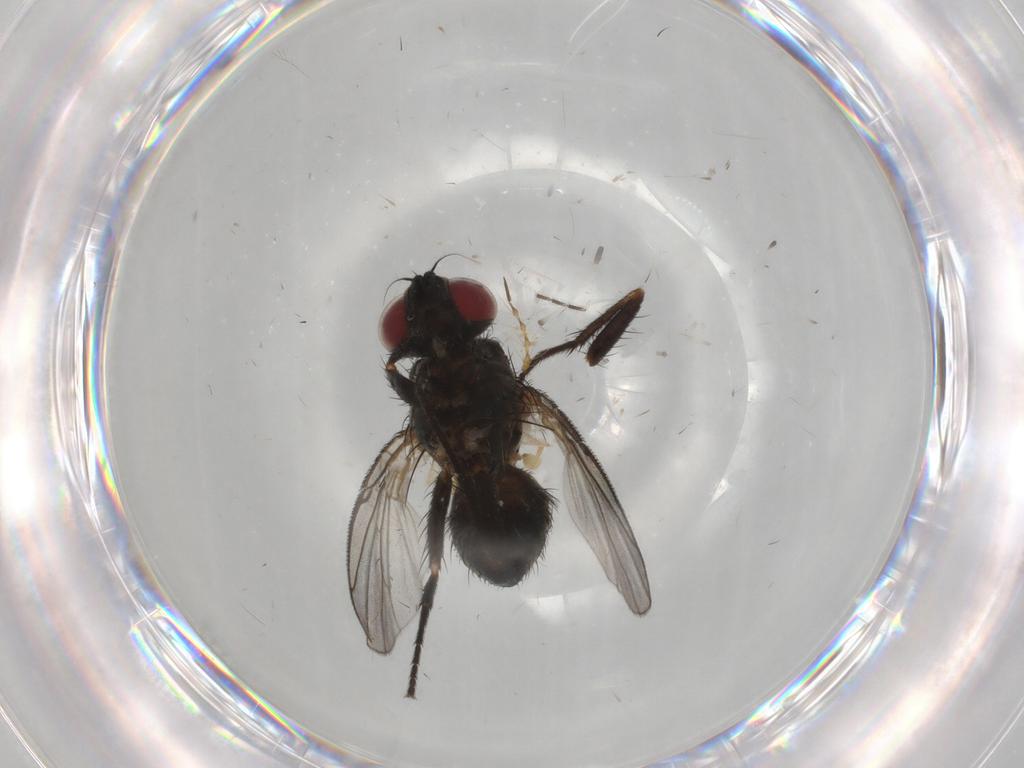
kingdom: Animalia
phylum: Arthropoda
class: Insecta
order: Diptera
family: Muscidae
